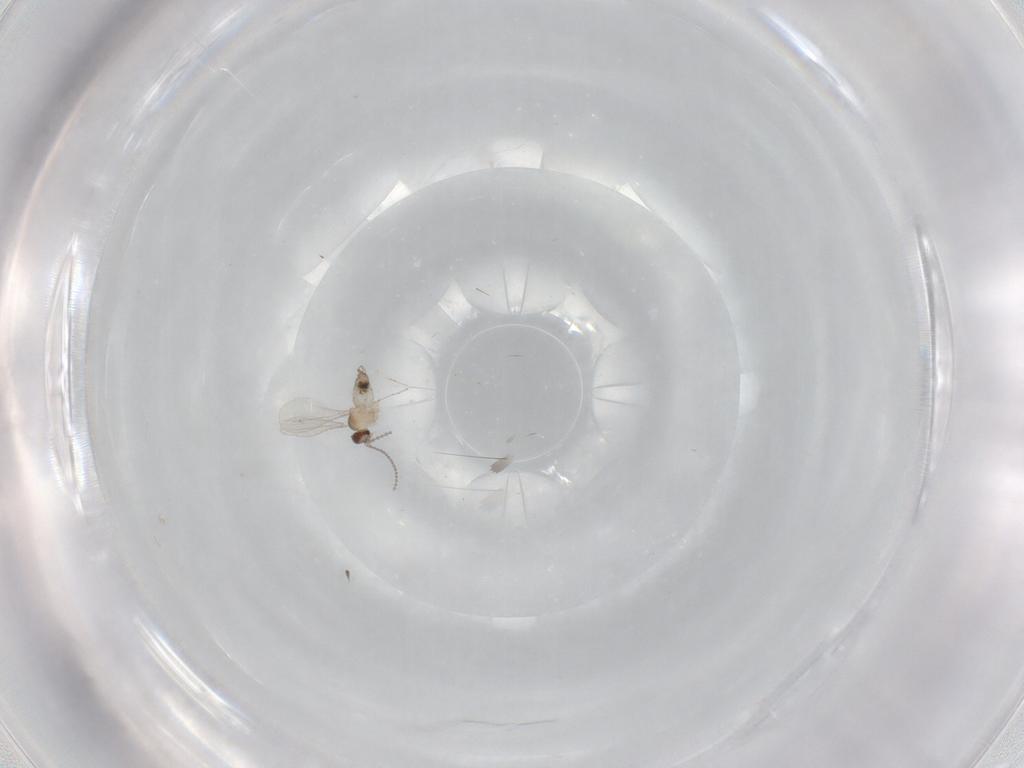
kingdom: Animalia
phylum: Arthropoda
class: Insecta
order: Diptera
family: Cecidomyiidae
